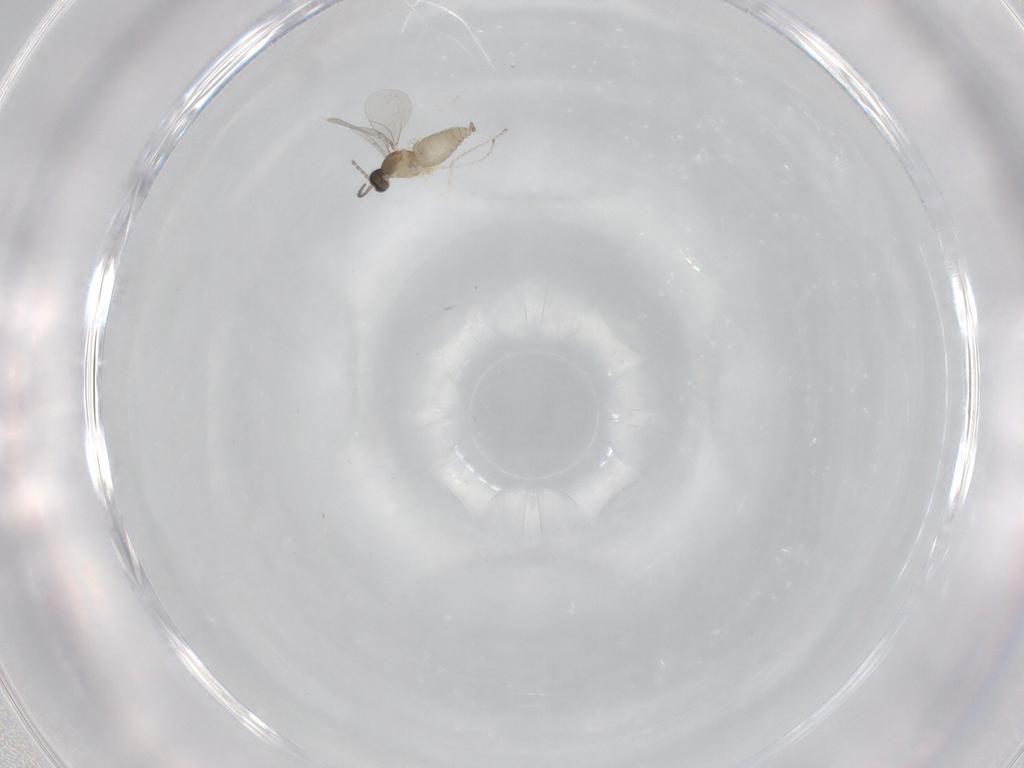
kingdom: Animalia
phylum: Arthropoda
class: Insecta
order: Diptera
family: Cecidomyiidae
